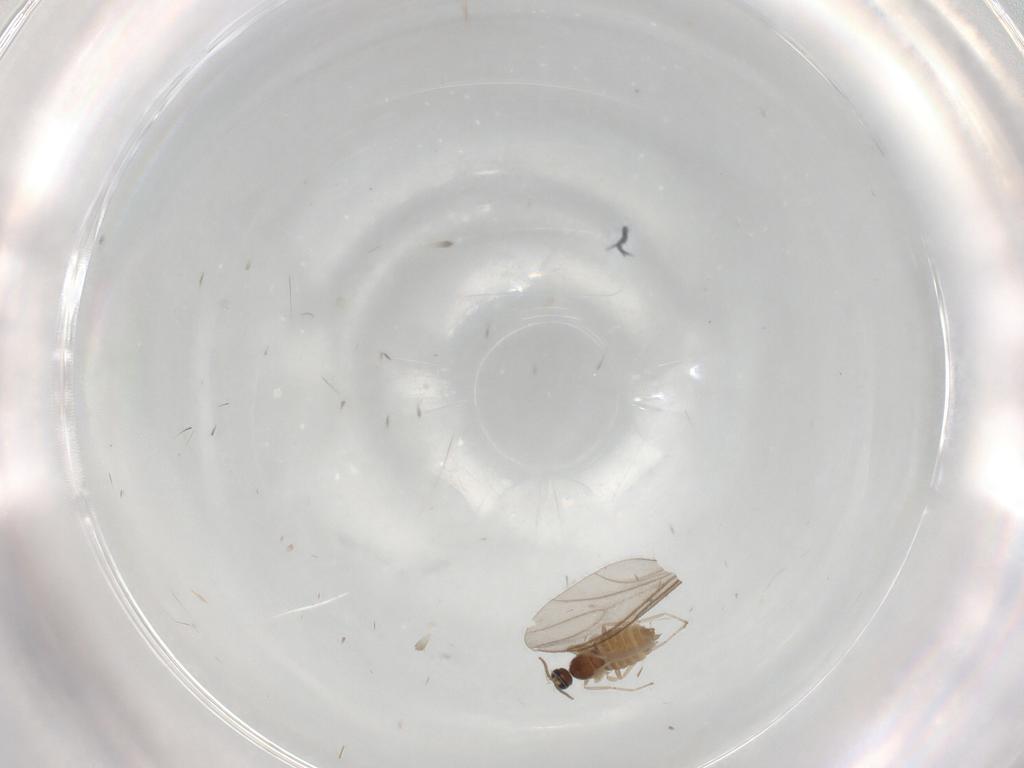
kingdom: Animalia
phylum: Arthropoda
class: Insecta
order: Diptera
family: Cecidomyiidae
